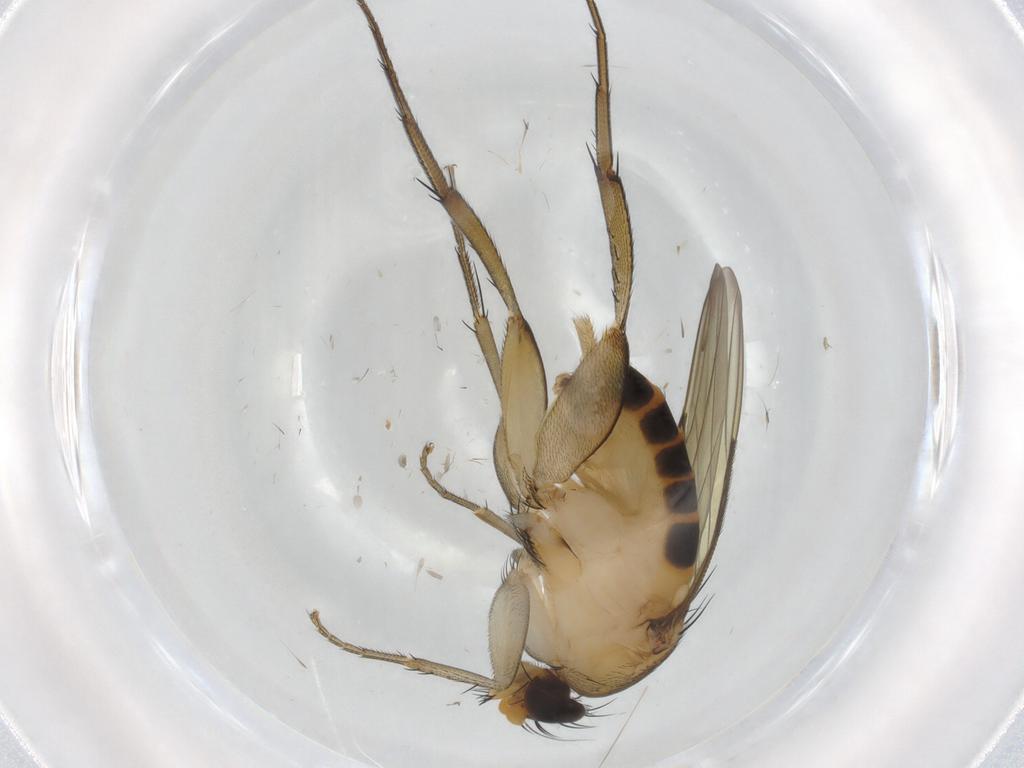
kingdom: Animalia
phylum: Arthropoda
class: Insecta
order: Diptera
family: Phoridae
